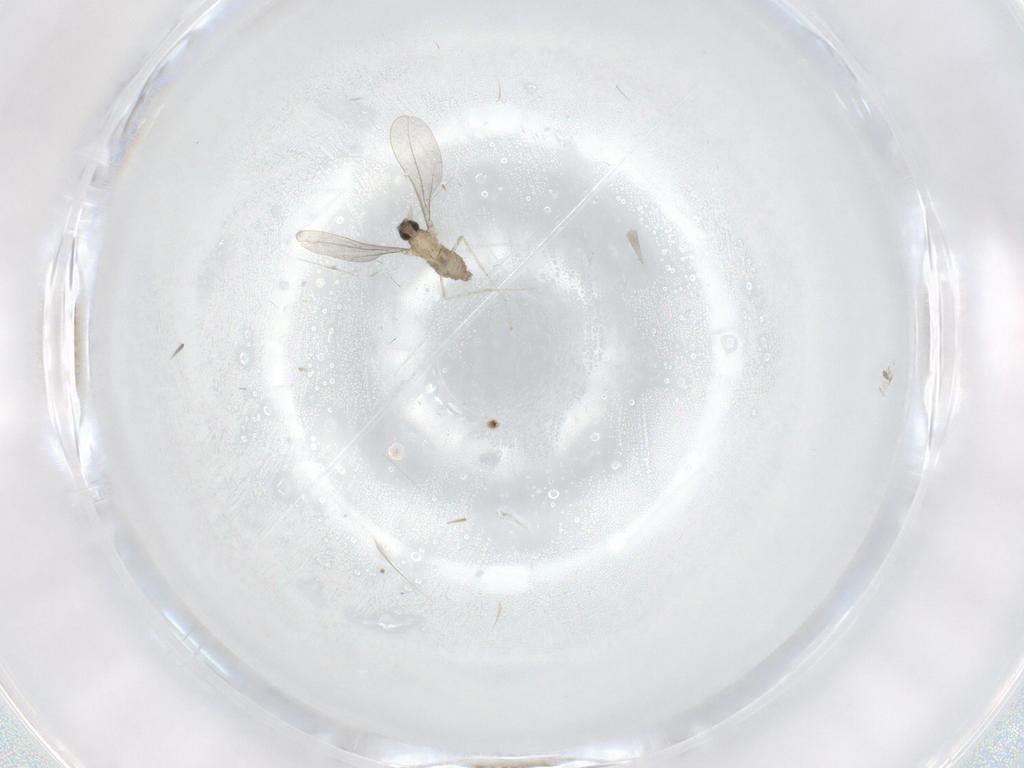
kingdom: Animalia
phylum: Arthropoda
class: Insecta
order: Diptera
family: Cecidomyiidae
